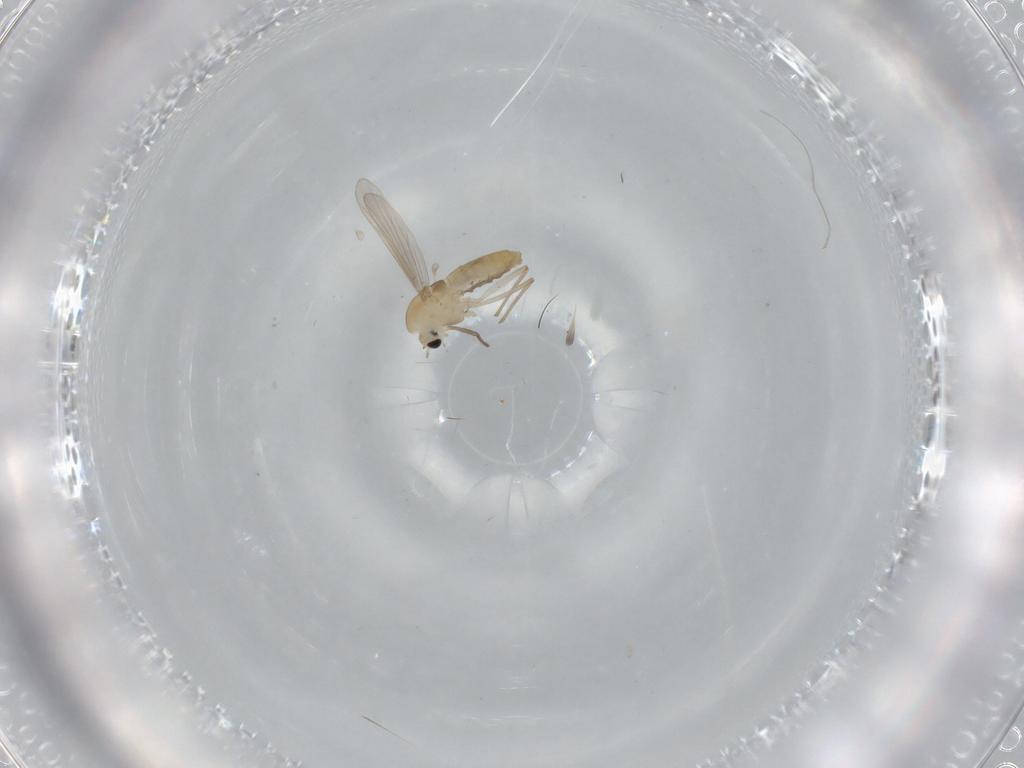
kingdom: Animalia
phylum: Arthropoda
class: Insecta
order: Diptera
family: Chironomidae
